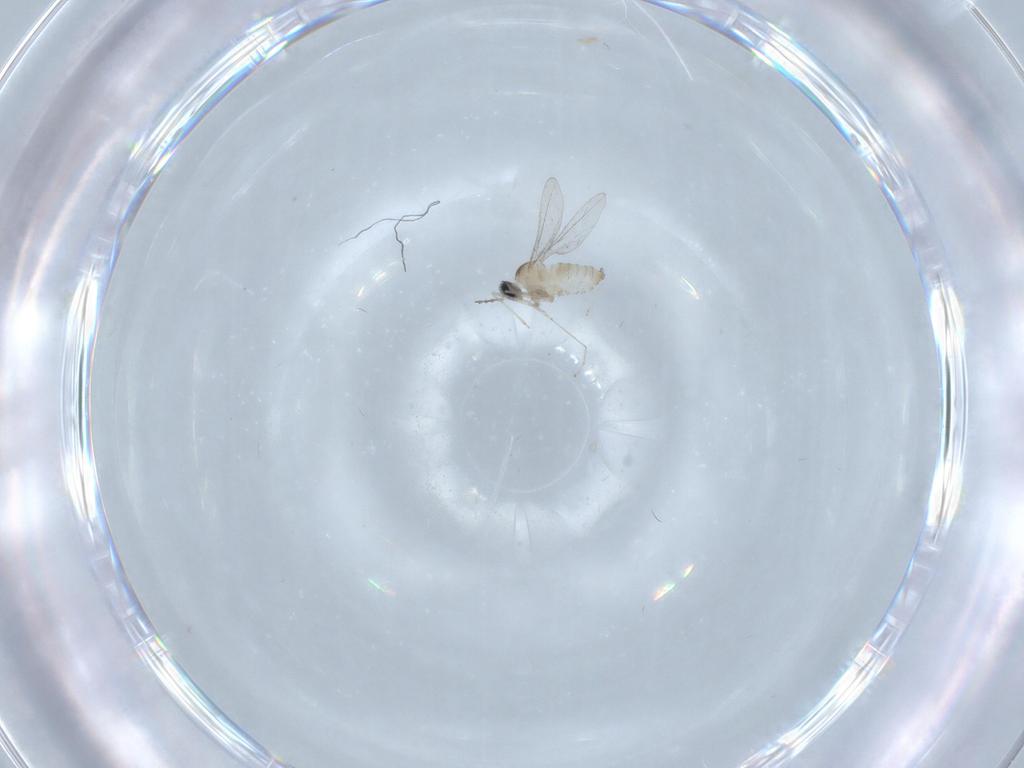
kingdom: Animalia
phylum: Arthropoda
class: Insecta
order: Diptera
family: Cecidomyiidae
